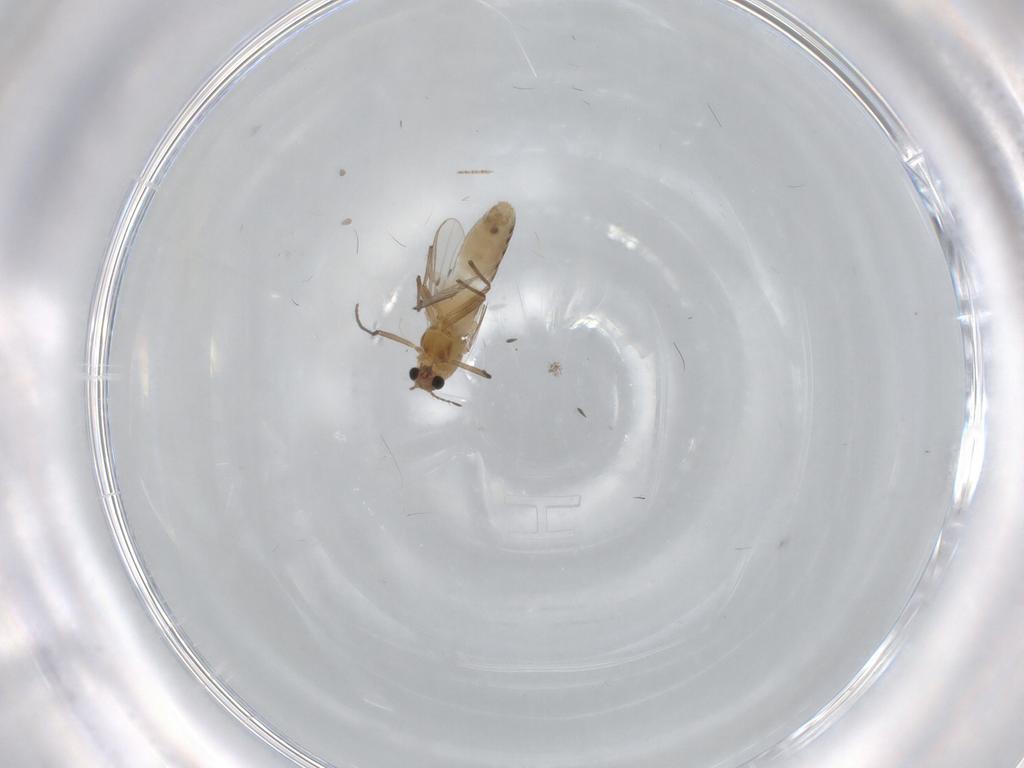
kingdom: Animalia
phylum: Arthropoda
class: Insecta
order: Diptera
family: Ceratopogonidae
